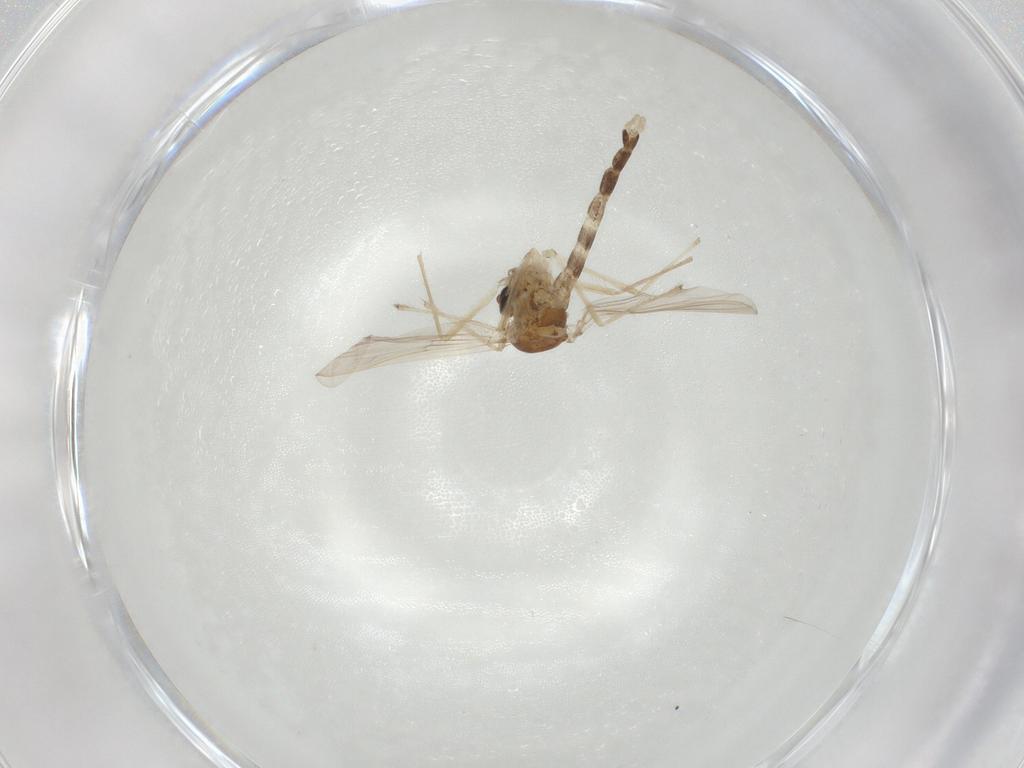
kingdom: Animalia
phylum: Arthropoda
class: Insecta
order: Diptera
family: Chironomidae
